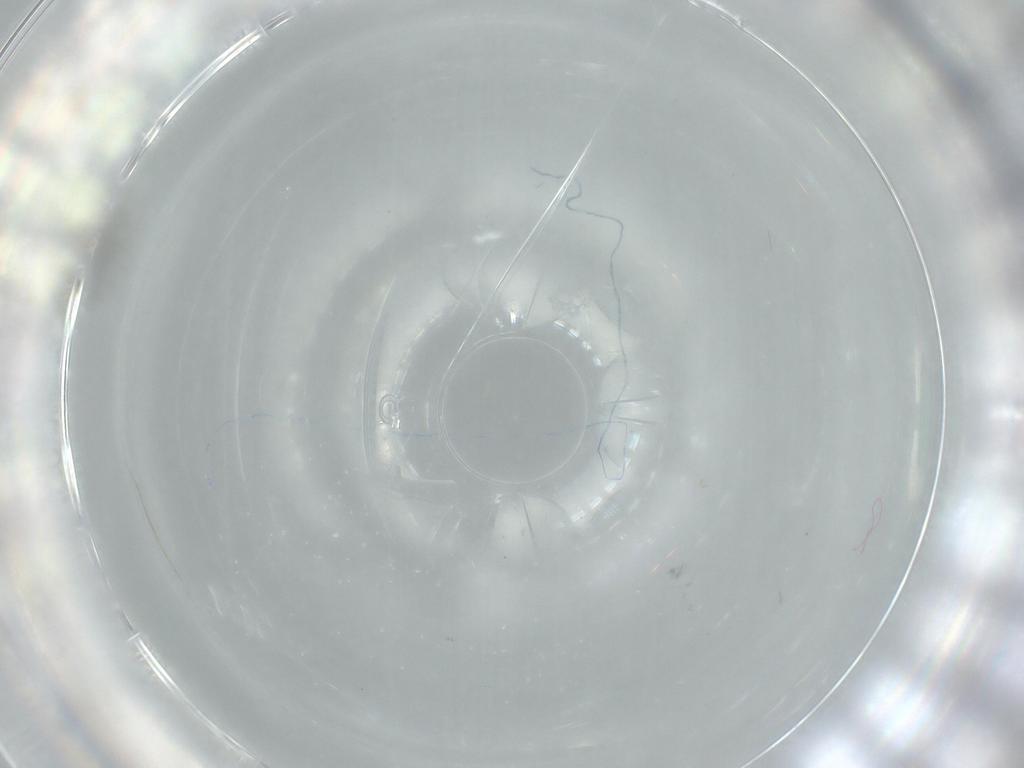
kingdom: Animalia
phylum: Arthropoda
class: Insecta
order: Diptera
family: Cecidomyiidae
